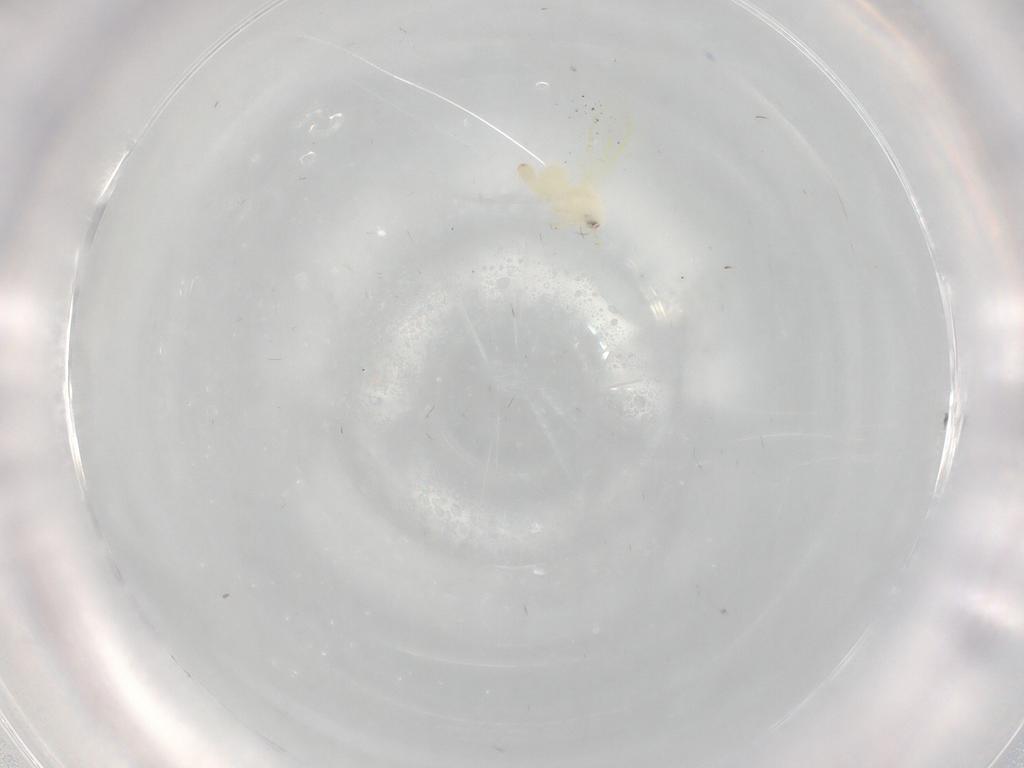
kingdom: Animalia
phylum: Arthropoda
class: Insecta
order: Hemiptera
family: Aleyrodidae
